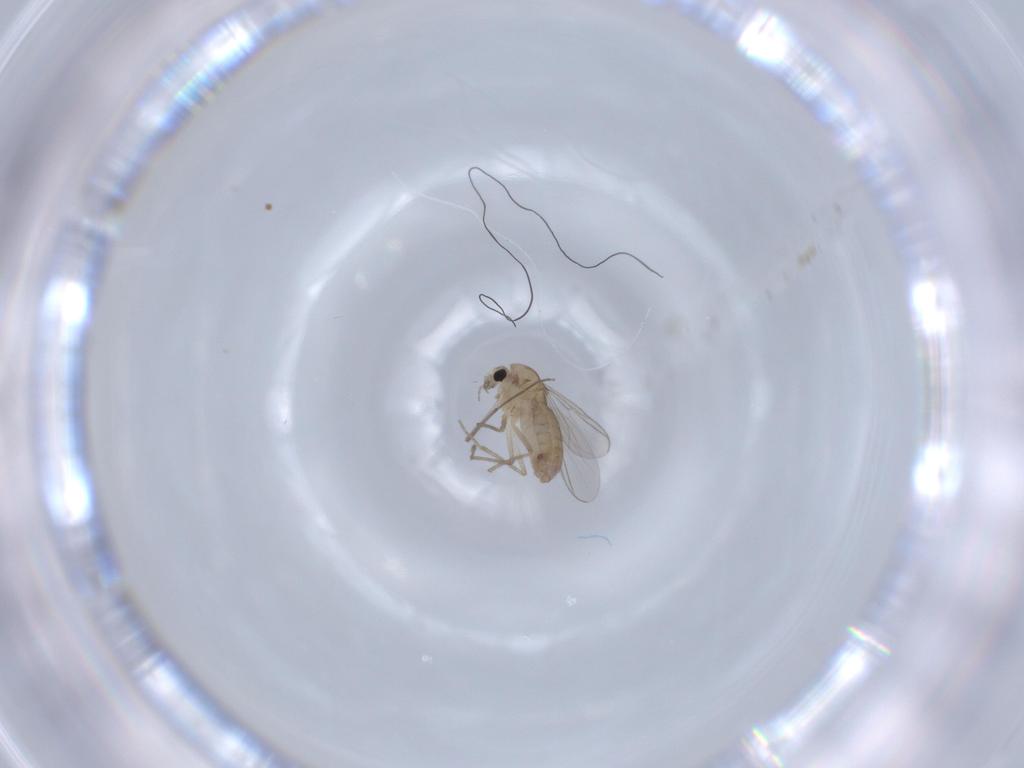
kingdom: Animalia
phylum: Arthropoda
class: Insecta
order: Diptera
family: Chironomidae
